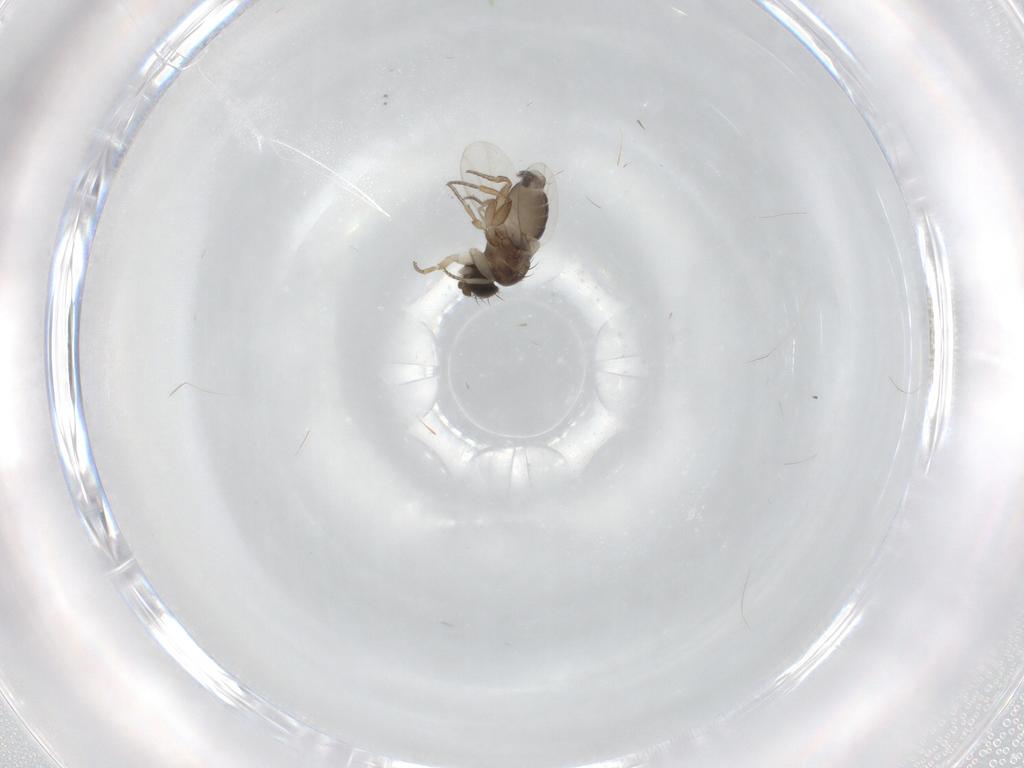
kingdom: Animalia
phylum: Arthropoda
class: Insecta
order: Diptera
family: Phoridae
